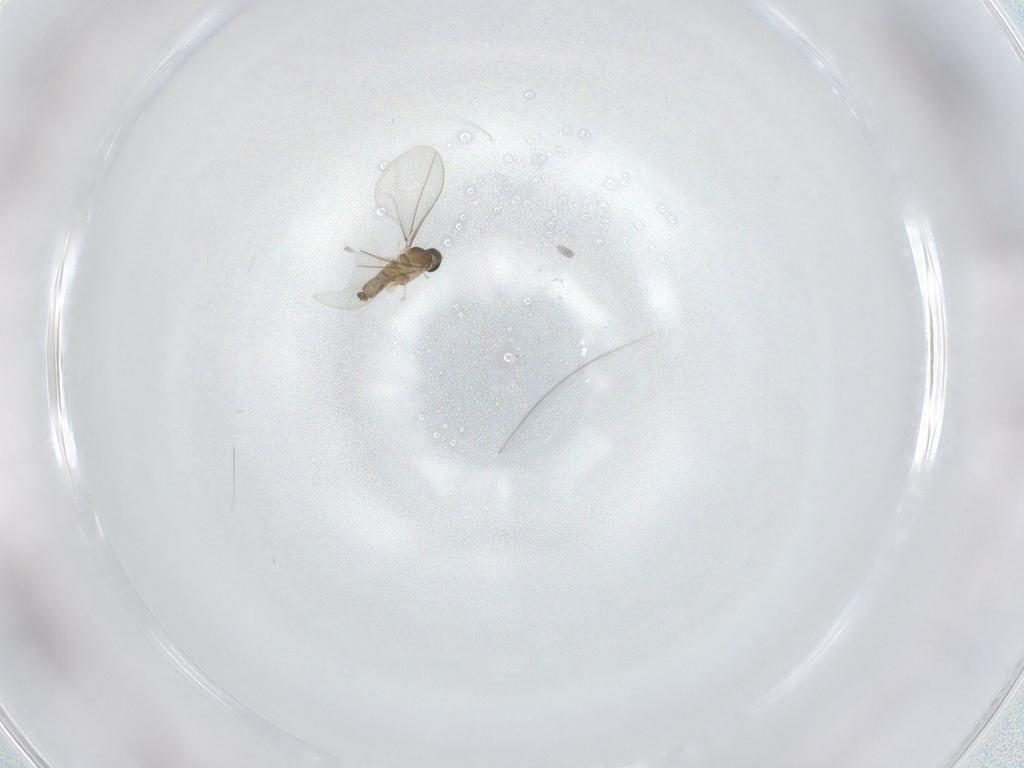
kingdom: Animalia
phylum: Arthropoda
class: Insecta
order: Diptera
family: Cecidomyiidae
